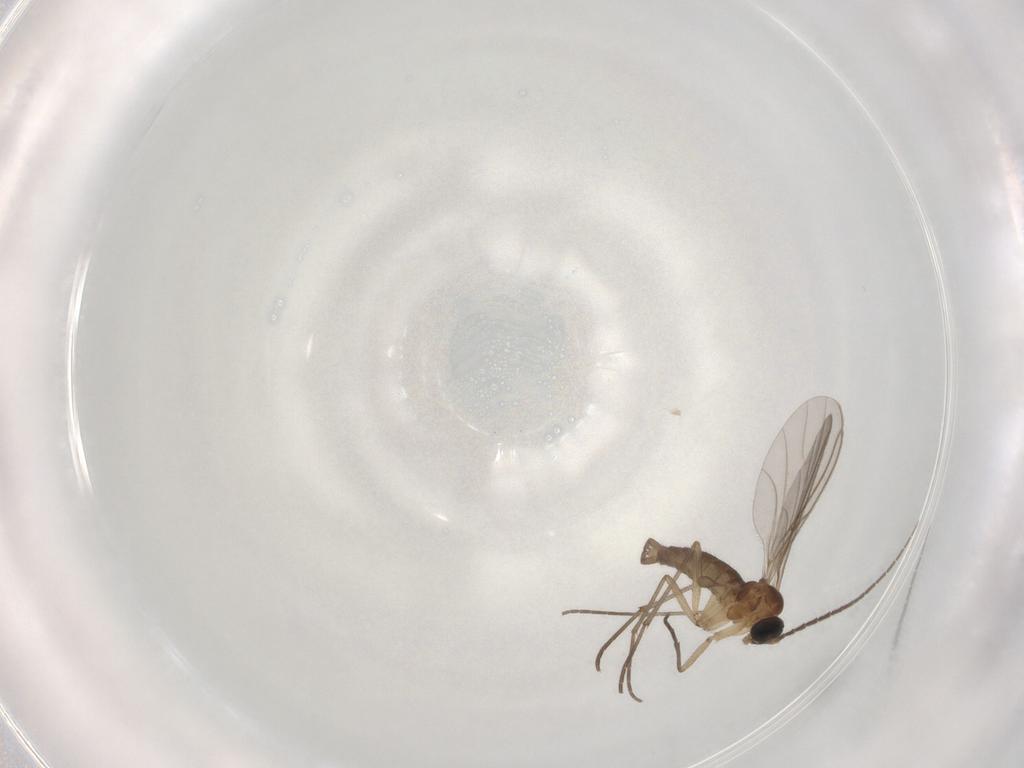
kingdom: Animalia
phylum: Arthropoda
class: Insecta
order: Diptera
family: Sciaridae
